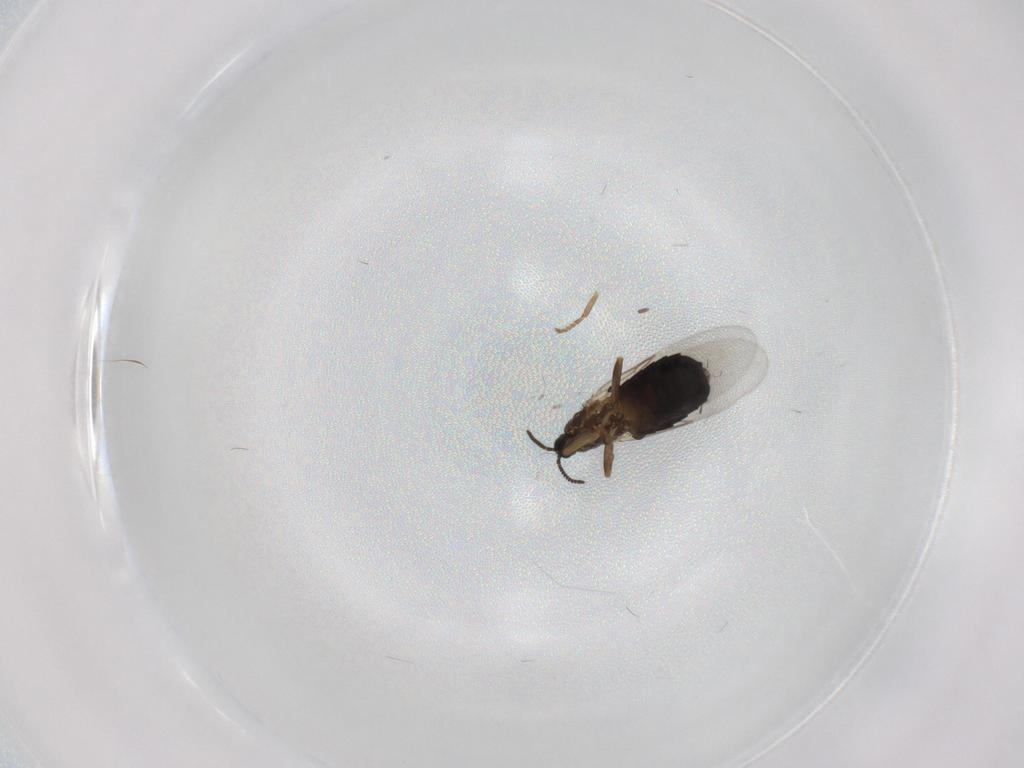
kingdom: Animalia
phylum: Arthropoda
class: Insecta
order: Diptera
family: Scatopsidae
